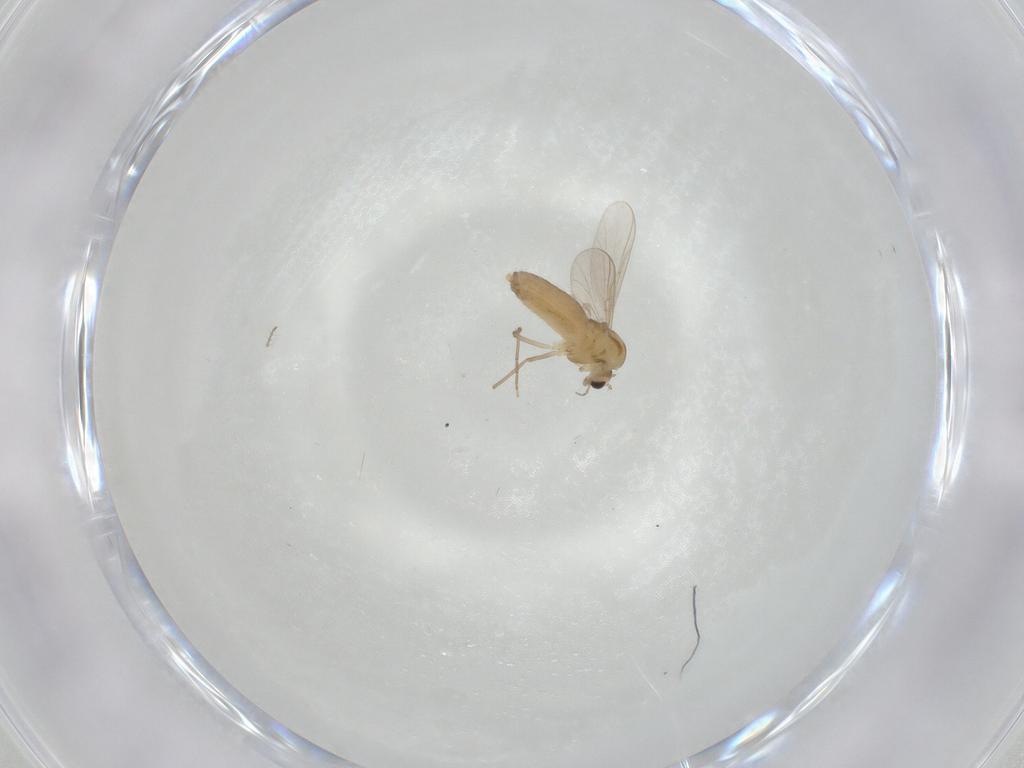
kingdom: Animalia
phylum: Arthropoda
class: Insecta
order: Diptera
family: Chironomidae
